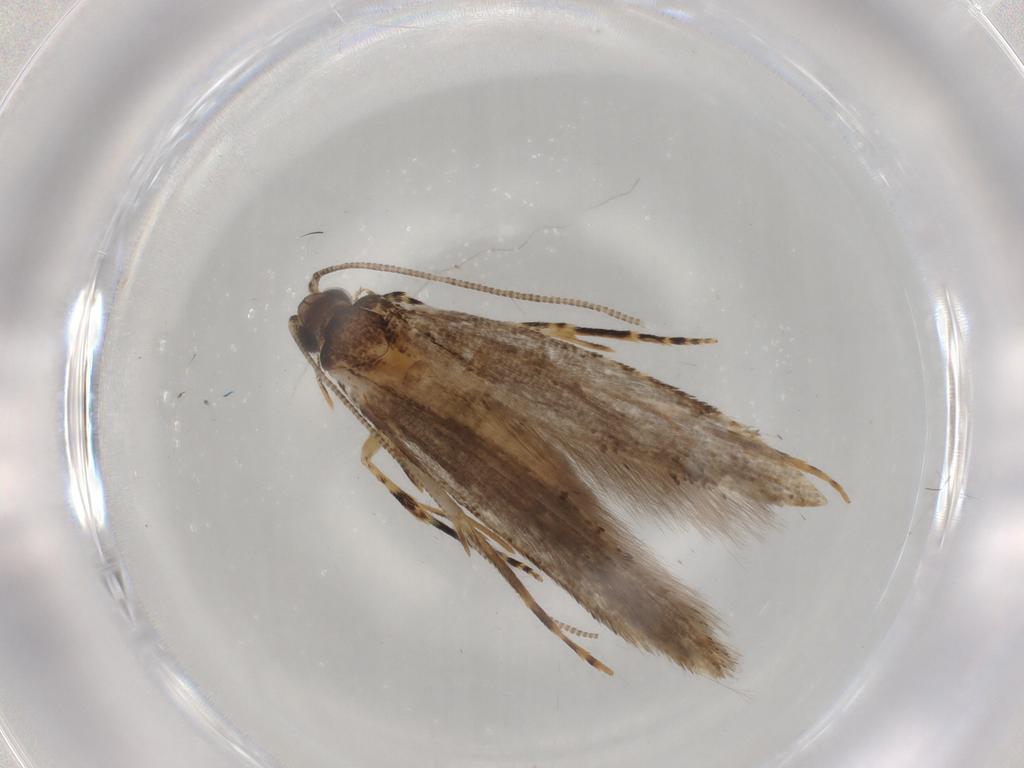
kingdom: Animalia
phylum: Arthropoda
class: Insecta
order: Lepidoptera
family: Tineidae
